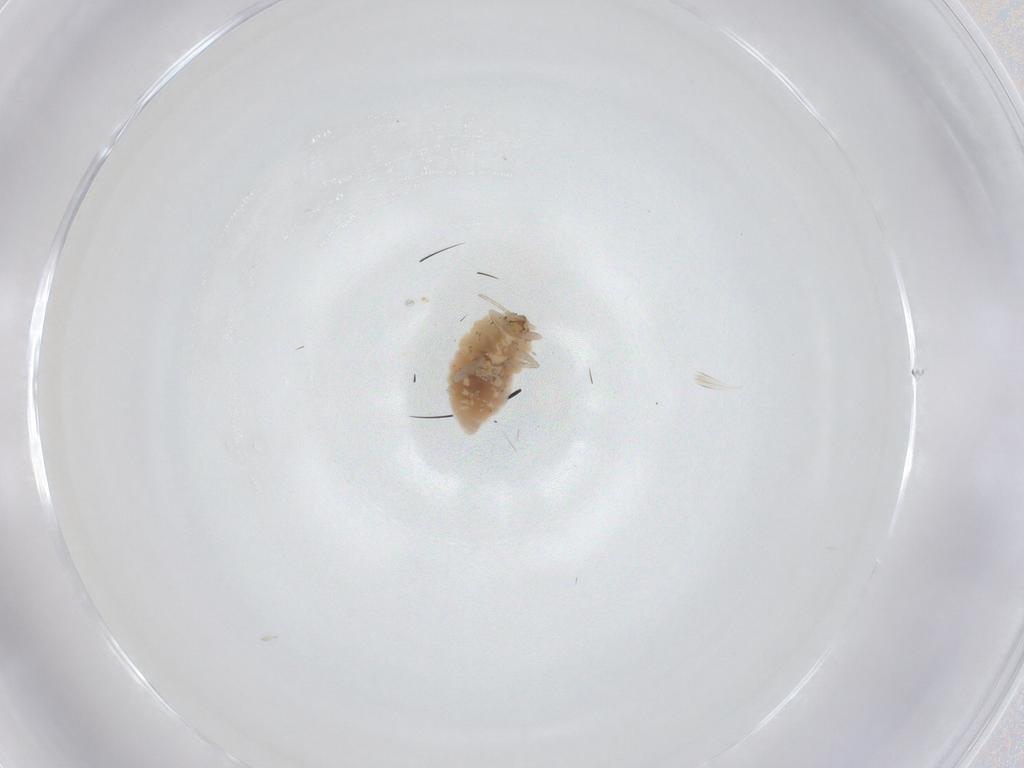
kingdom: Animalia
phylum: Arthropoda
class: Insecta
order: Neuroptera
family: Coniopterygidae
